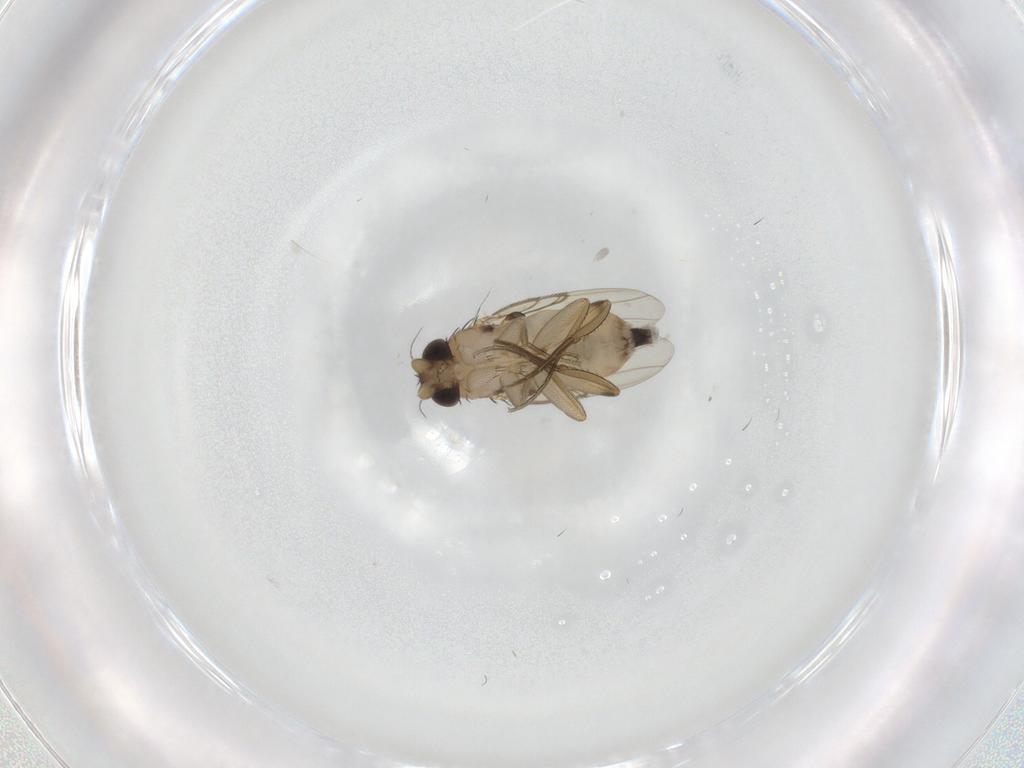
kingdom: Animalia
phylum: Arthropoda
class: Insecta
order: Diptera
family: Phoridae
